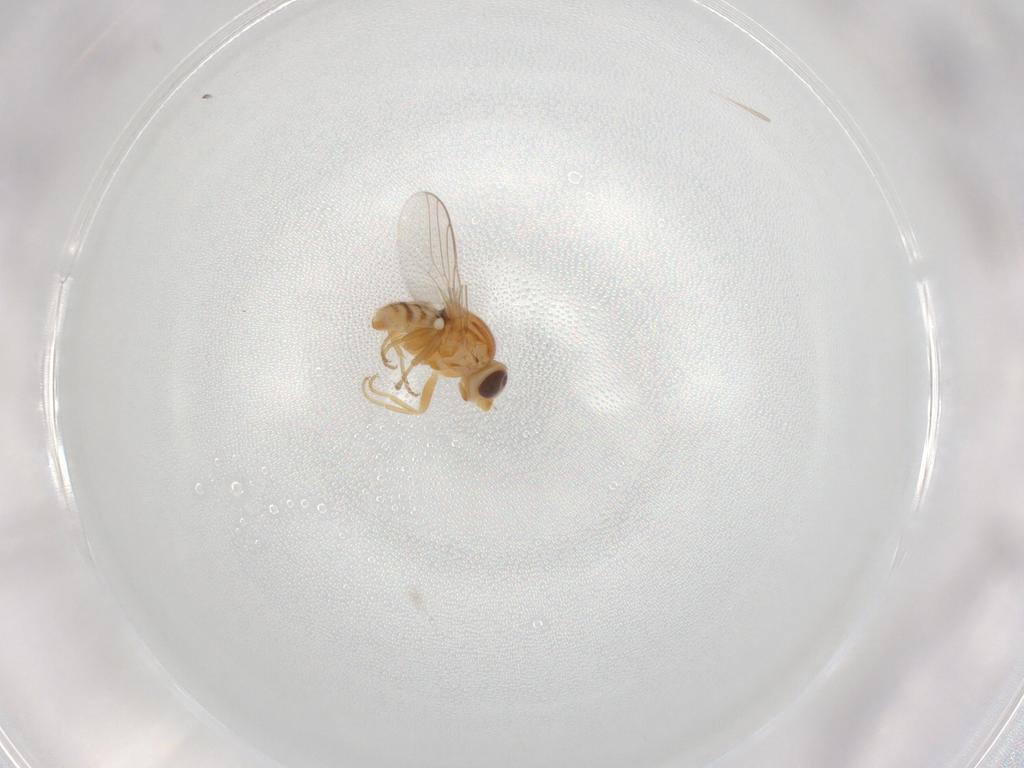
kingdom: Animalia
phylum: Arthropoda
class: Insecta
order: Diptera
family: Chloropidae
